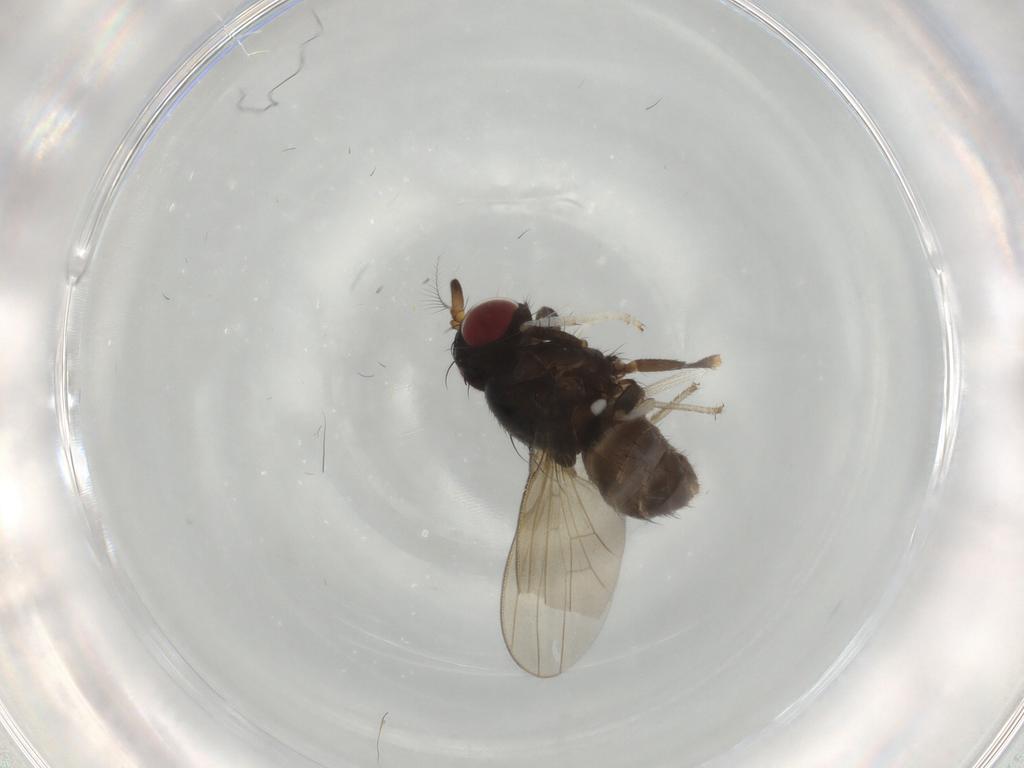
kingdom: Animalia
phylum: Arthropoda
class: Insecta
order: Diptera
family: Lauxaniidae
